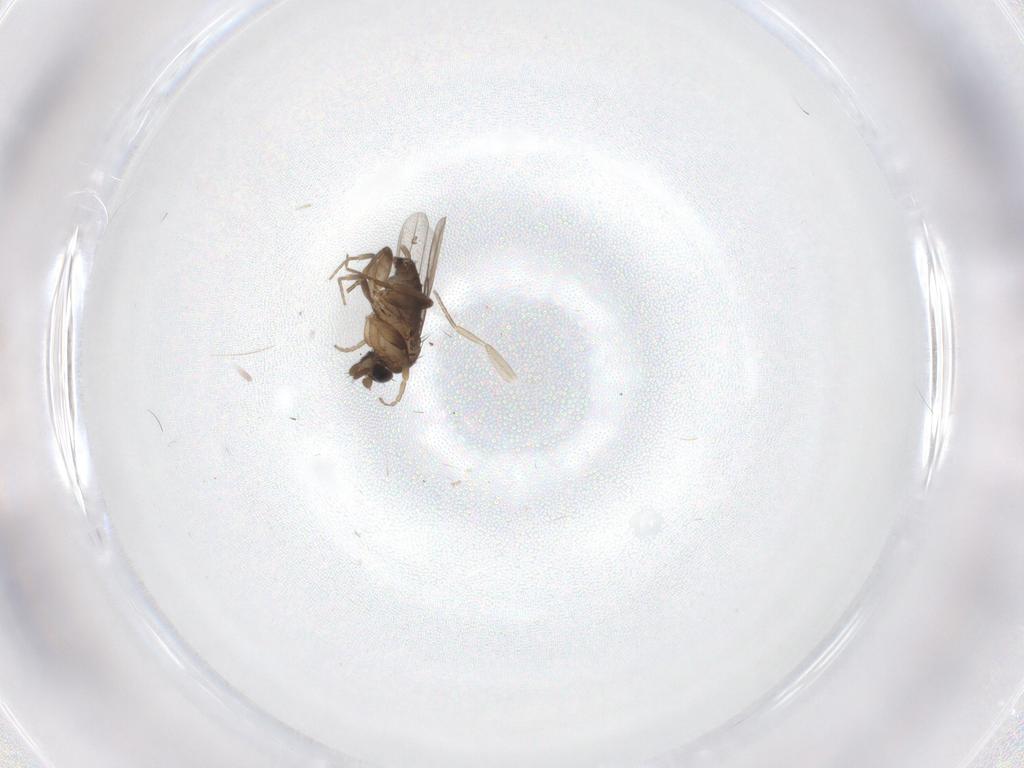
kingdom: Animalia
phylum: Arthropoda
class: Insecta
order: Diptera
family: Phoridae
